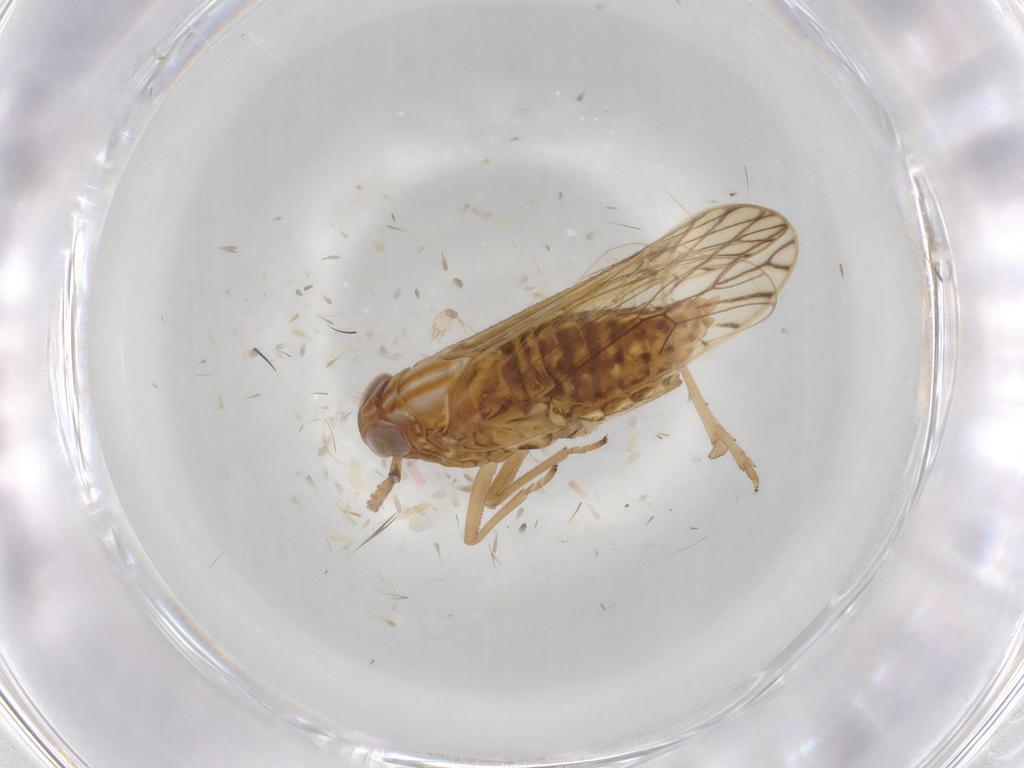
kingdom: Animalia
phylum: Arthropoda
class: Insecta
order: Hemiptera
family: Delphacidae
